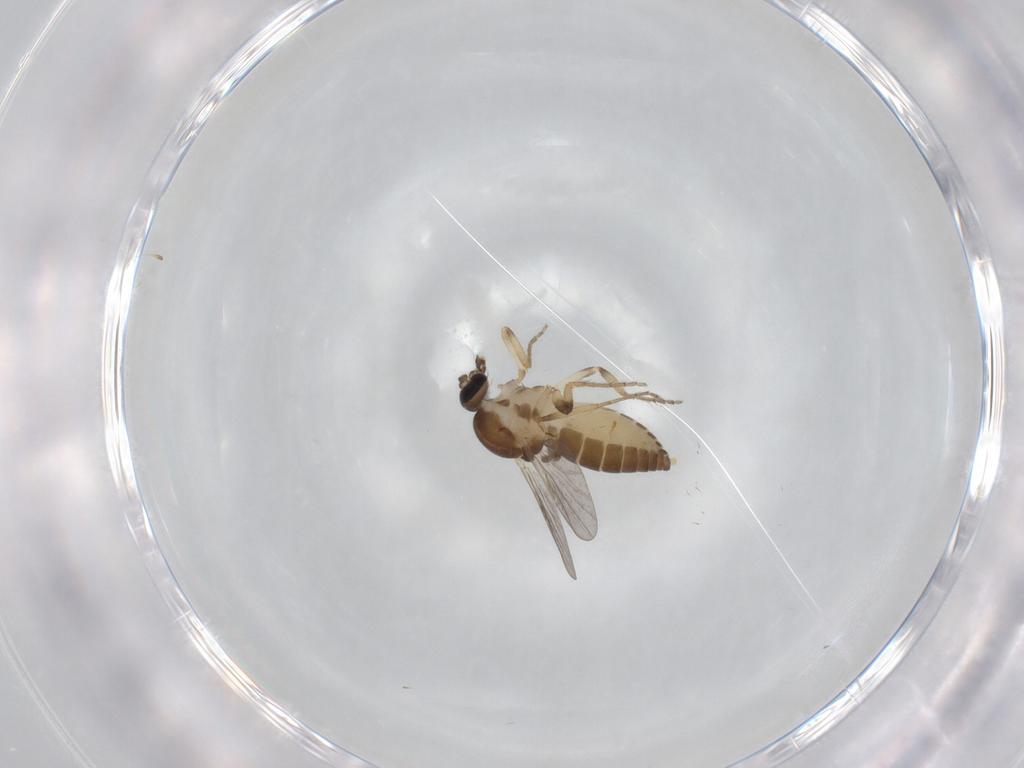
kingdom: Animalia
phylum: Arthropoda
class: Insecta
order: Diptera
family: Ceratopogonidae
